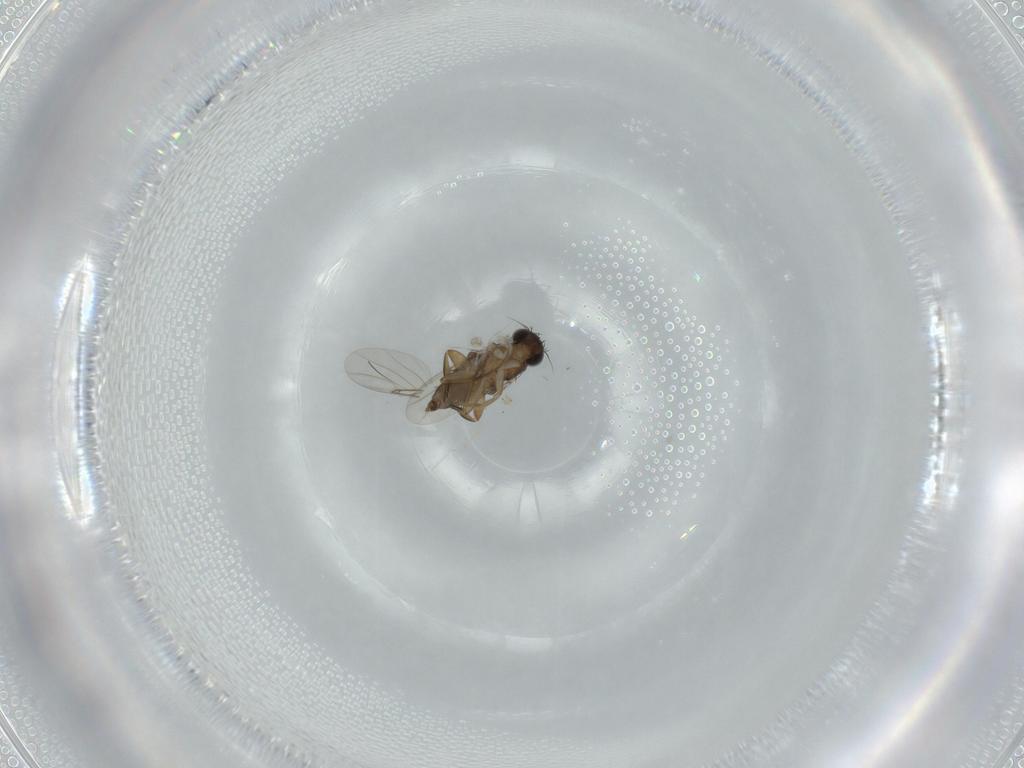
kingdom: Animalia
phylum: Arthropoda
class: Insecta
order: Diptera
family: Phoridae
